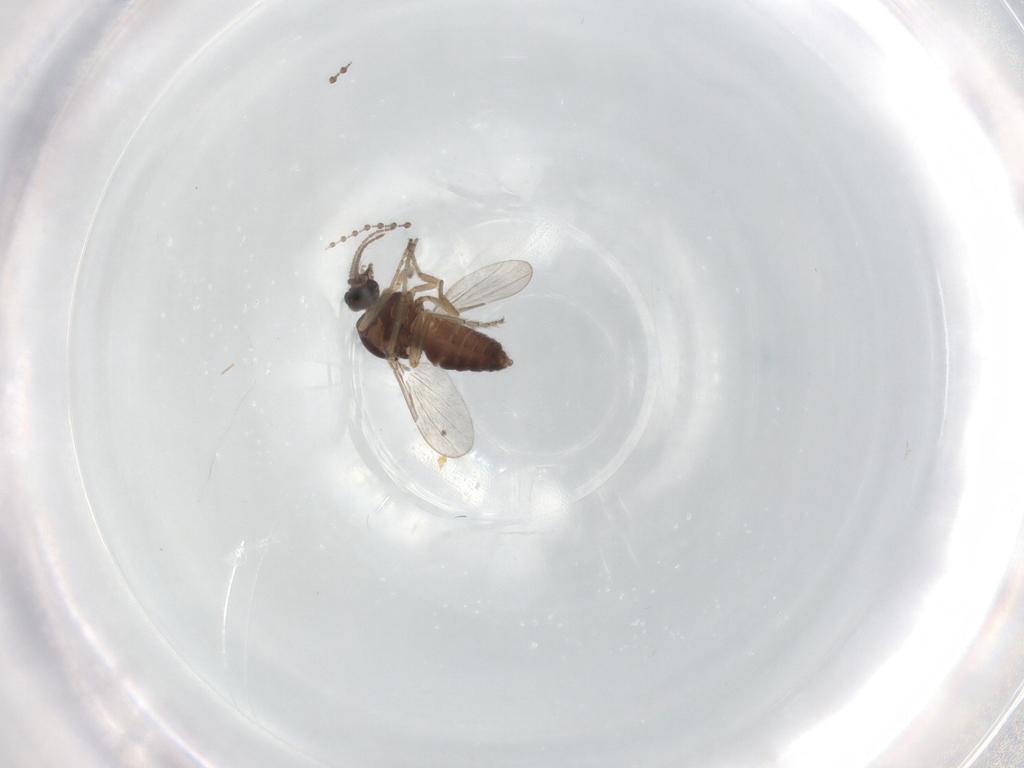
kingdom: Animalia
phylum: Arthropoda
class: Insecta
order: Diptera
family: Ceratopogonidae
